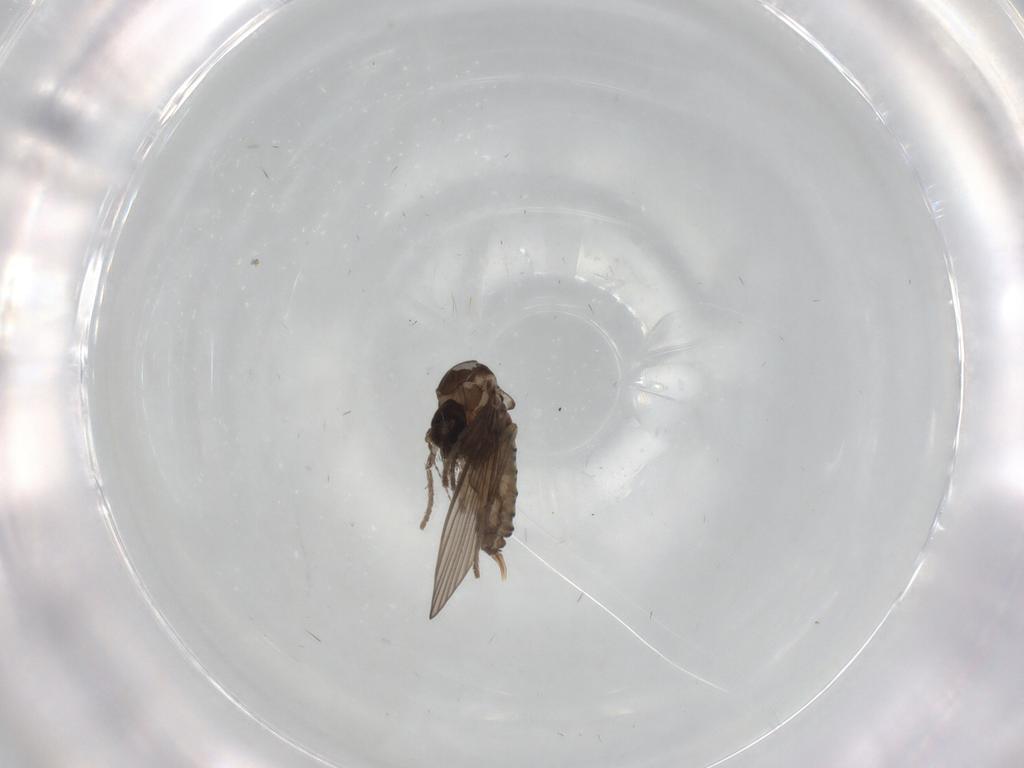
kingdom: Animalia
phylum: Arthropoda
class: Insecta
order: Diptera
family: Psychodidae
